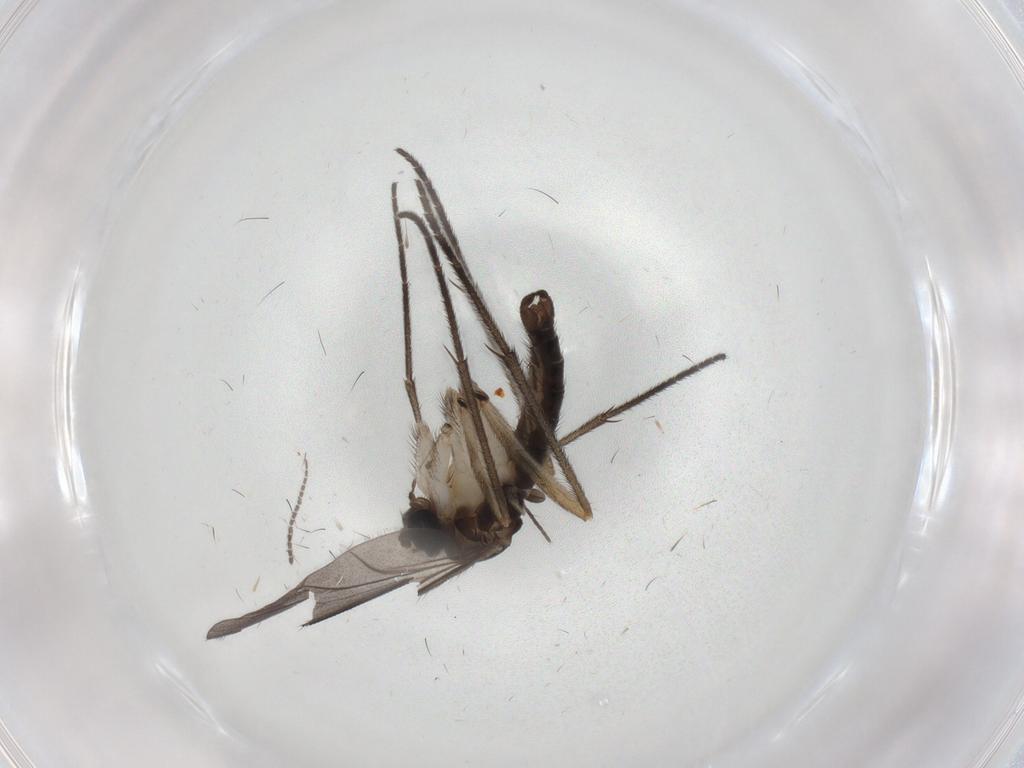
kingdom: Animalia
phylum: Arthropoda
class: Insecta
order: Diptera
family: Sciaridae
